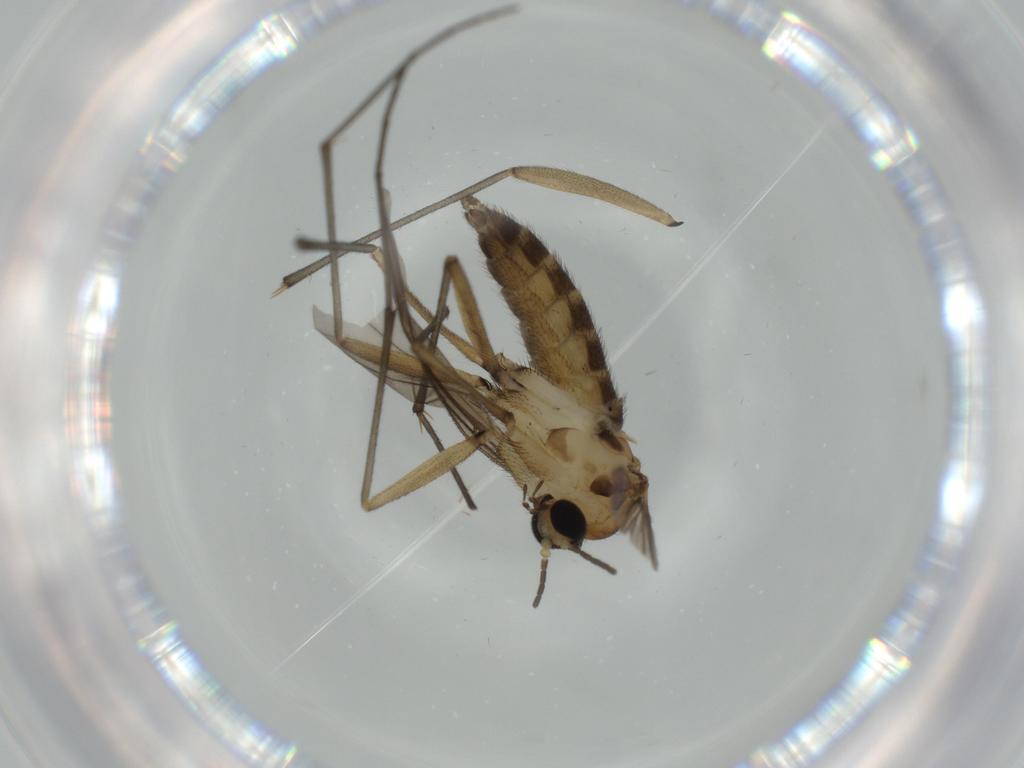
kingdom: Animalia
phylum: Arthropoda
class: Insecta
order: Diptera
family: Sciaridae
